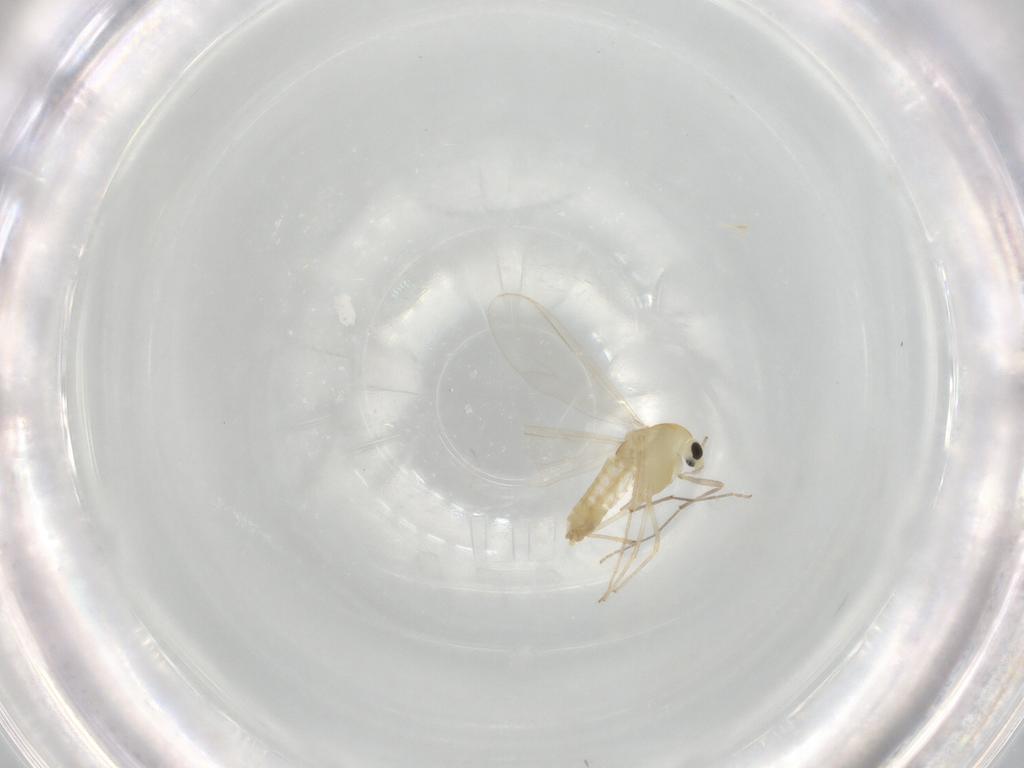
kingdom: Animalia
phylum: Arthropoda
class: Insecta
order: Diptera
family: Chironomidae
